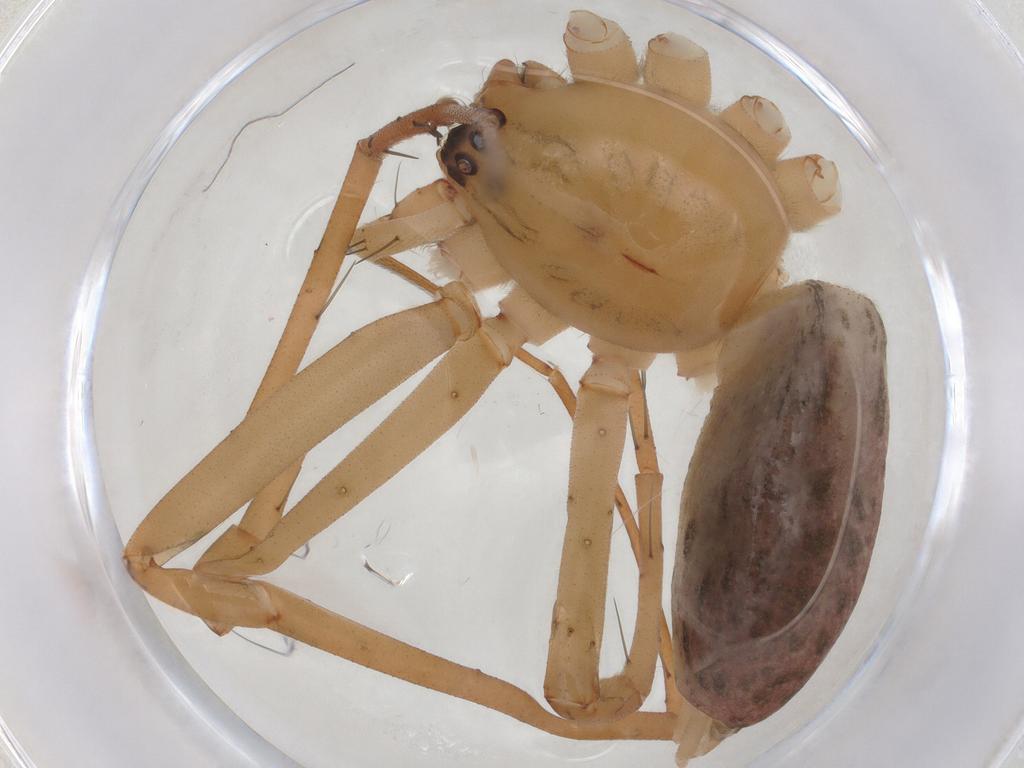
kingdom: Animalia
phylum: Arthropoda
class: Arachnida
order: Araneae
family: Anyphaenidae
